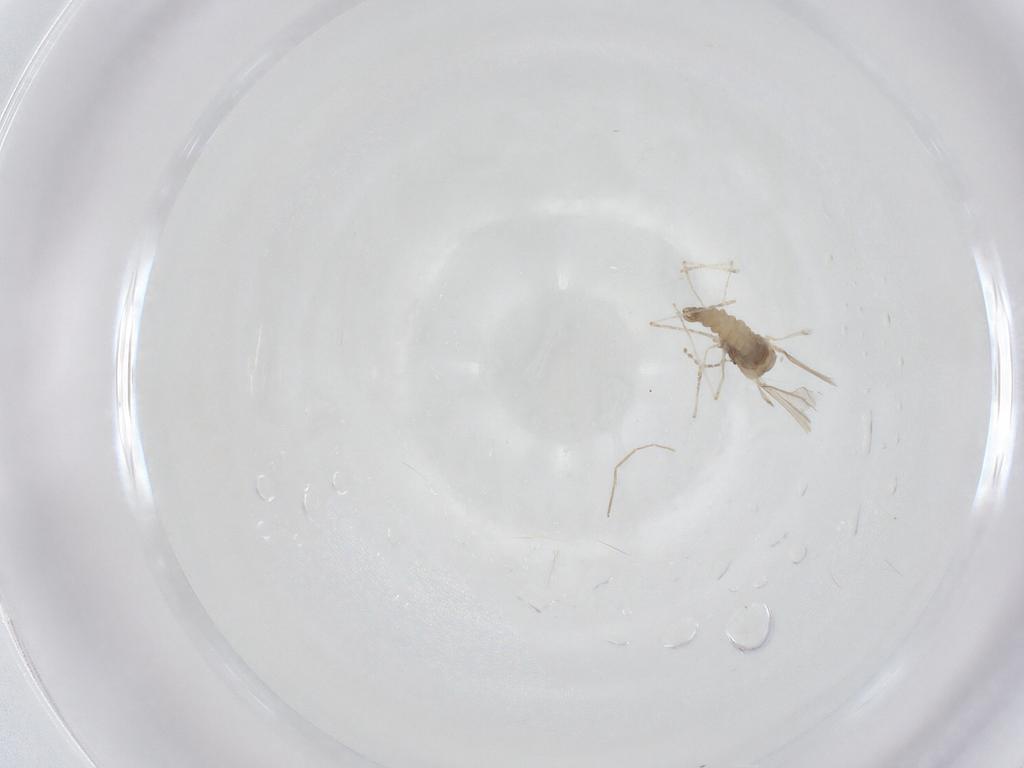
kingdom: Animalia
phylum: Arthropoda
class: Insecta
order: Diptera
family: Cecidomyiidae
